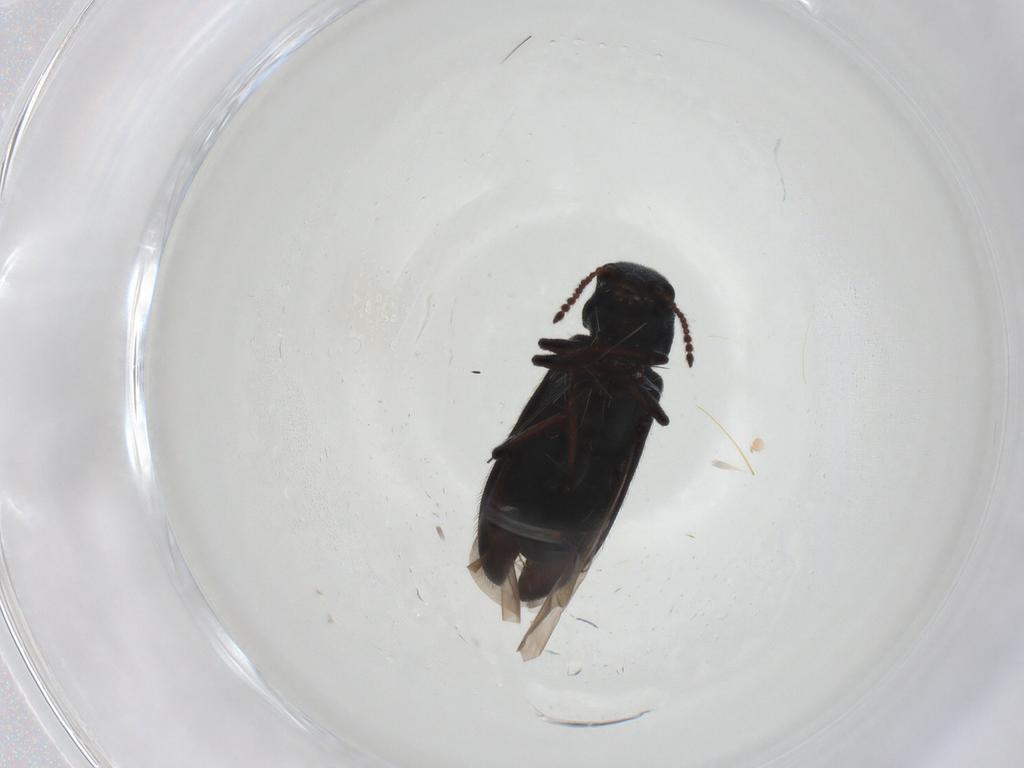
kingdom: Animalia
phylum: Arthropoda
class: Insecta
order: Coleoptera
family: Melyridae
